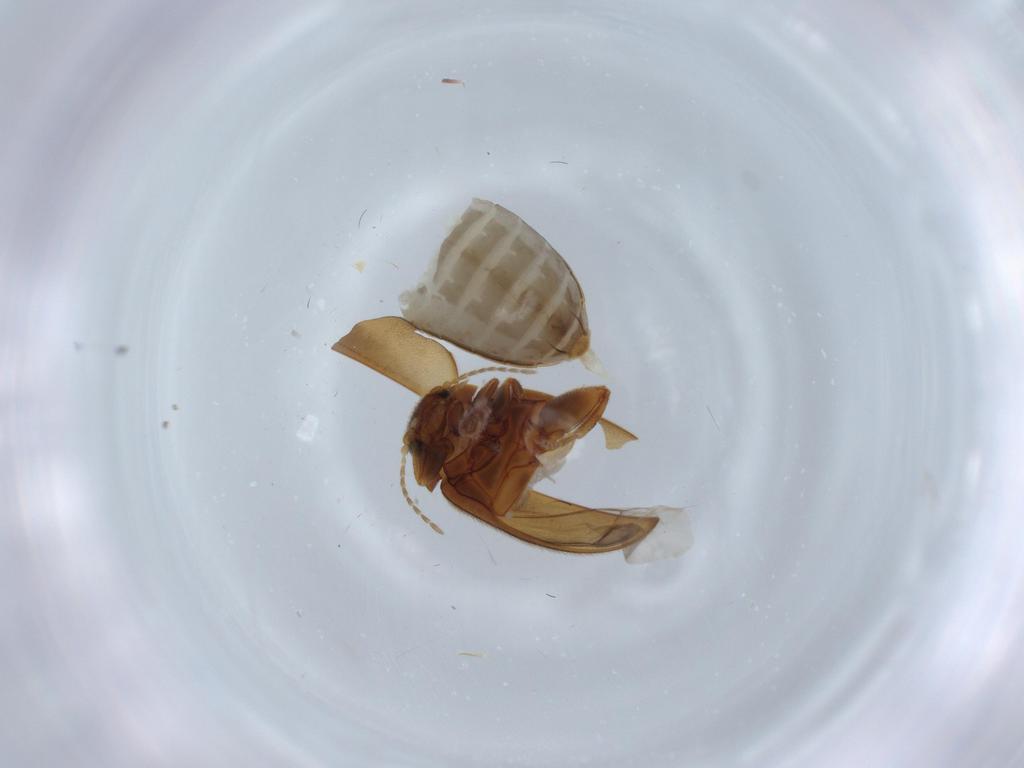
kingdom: Animalia
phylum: Arthropoda
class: Insecta
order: Coleoptera
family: Scirtidae
